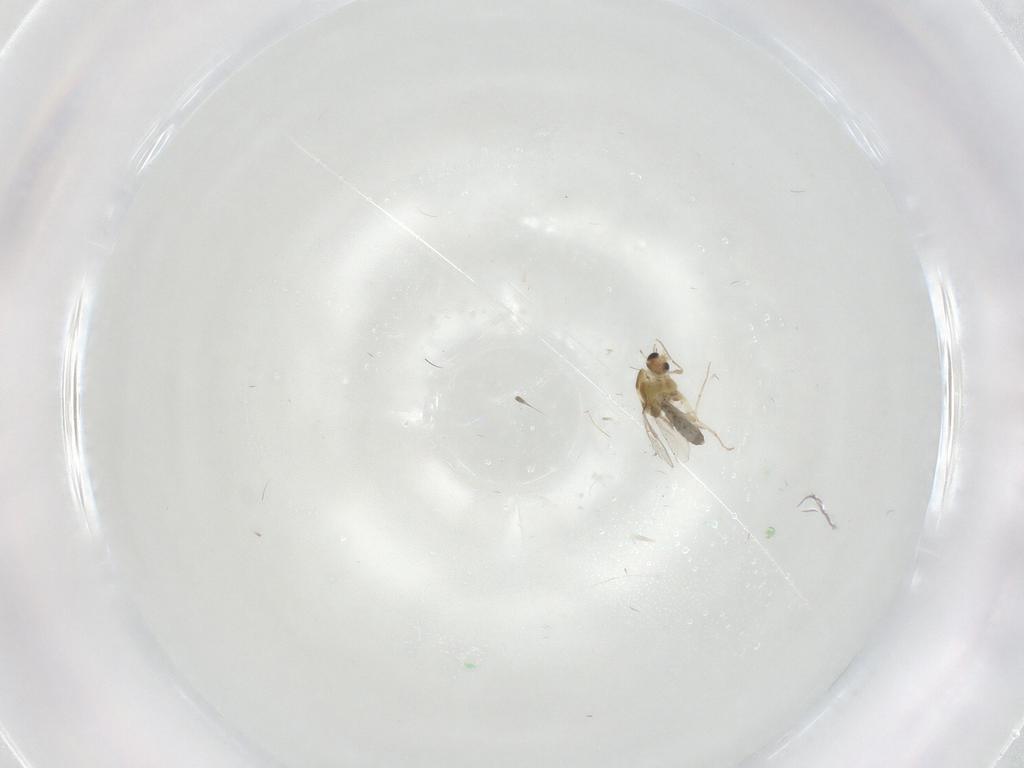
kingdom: Animalia
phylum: Arthropoda
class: Insecta
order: Diptera
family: Chironomidae
